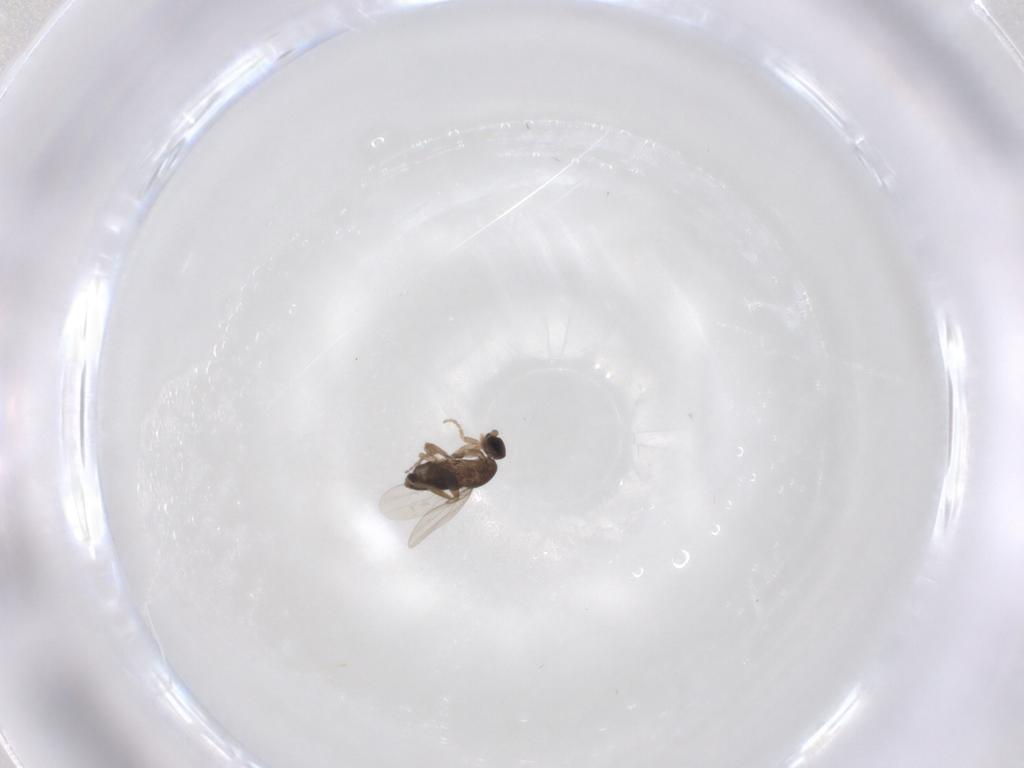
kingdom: Animalia
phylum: Arthropoda
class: Insecta
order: Diptera
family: Phoridae
